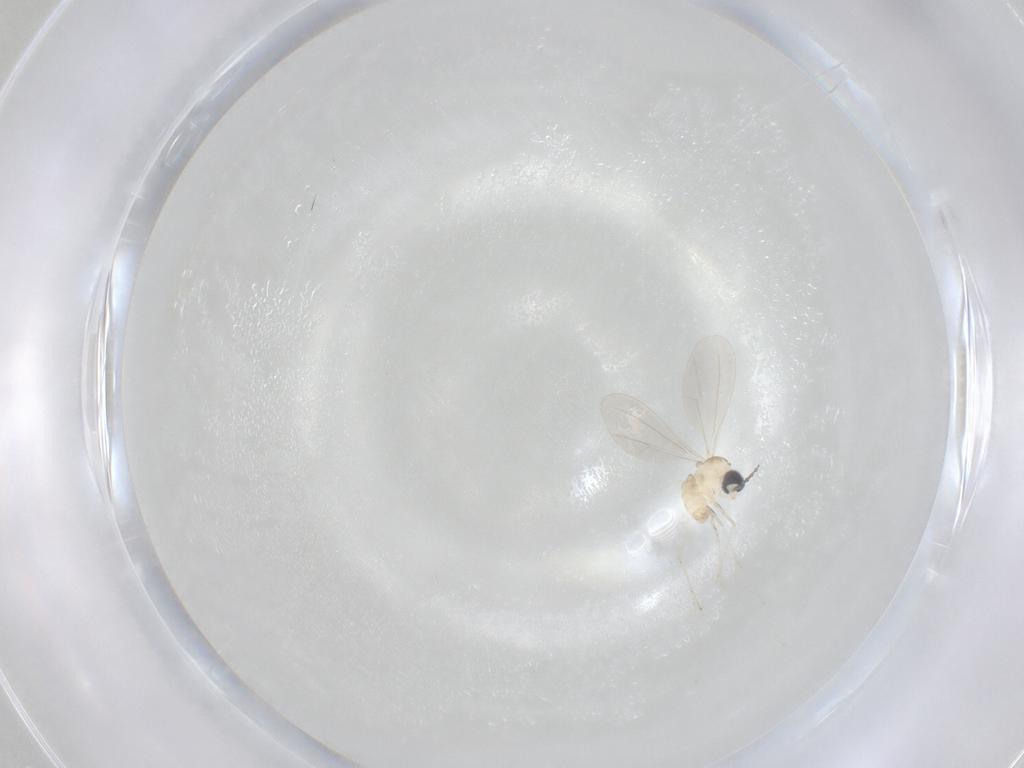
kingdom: Animalia
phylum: Arthropoda
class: Insecta
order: Diptera
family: Cecidomyiidae
